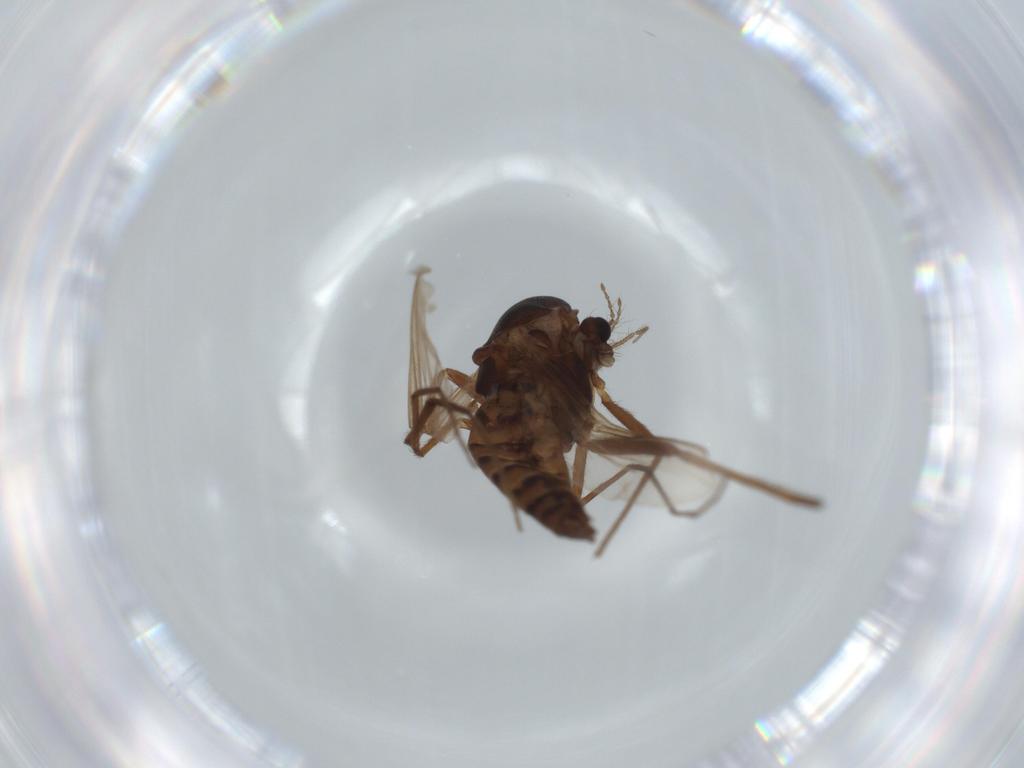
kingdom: Animalia
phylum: Arthropoda
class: Insecta
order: Diptera
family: Chironomidae
